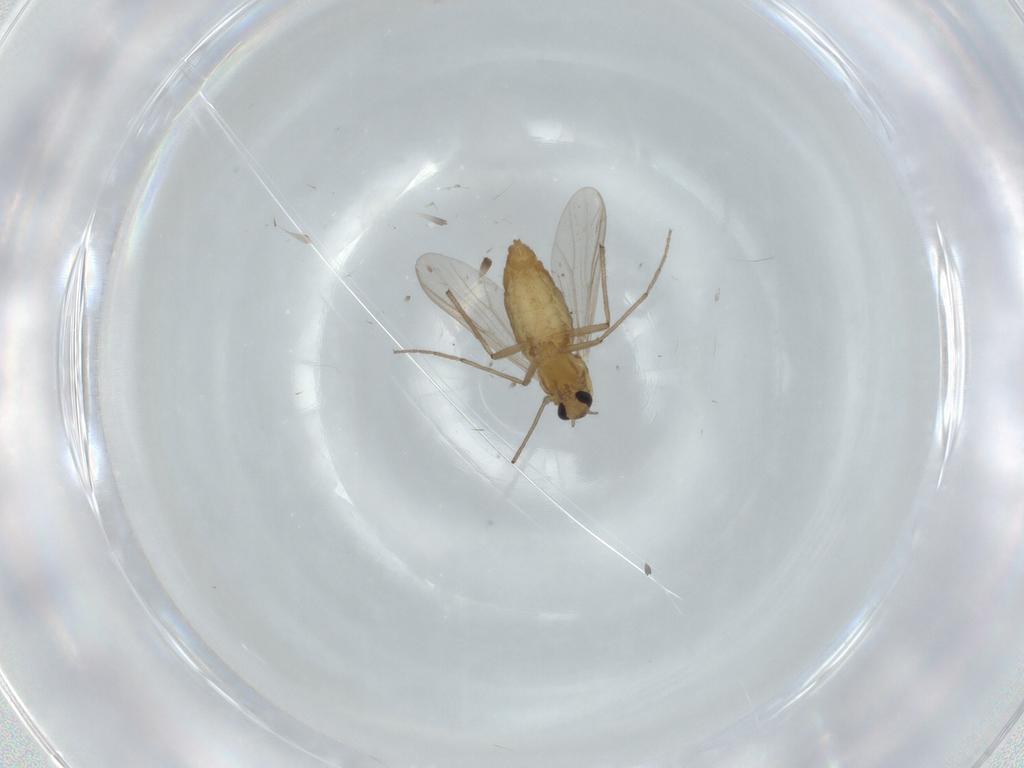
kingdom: Animalia
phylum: Arthropoda
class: Insecta
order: Diptera
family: Chironomidae
